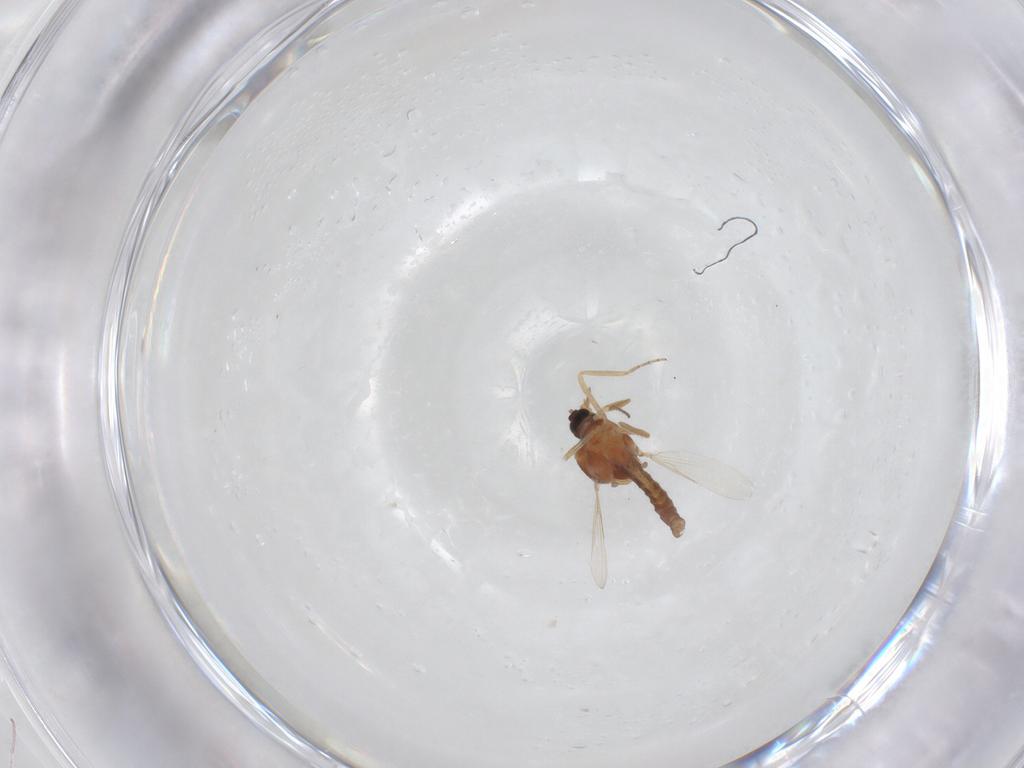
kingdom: Animalia
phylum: Arthropoda
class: Insecta
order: Diptera
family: Ceratopogonidae
